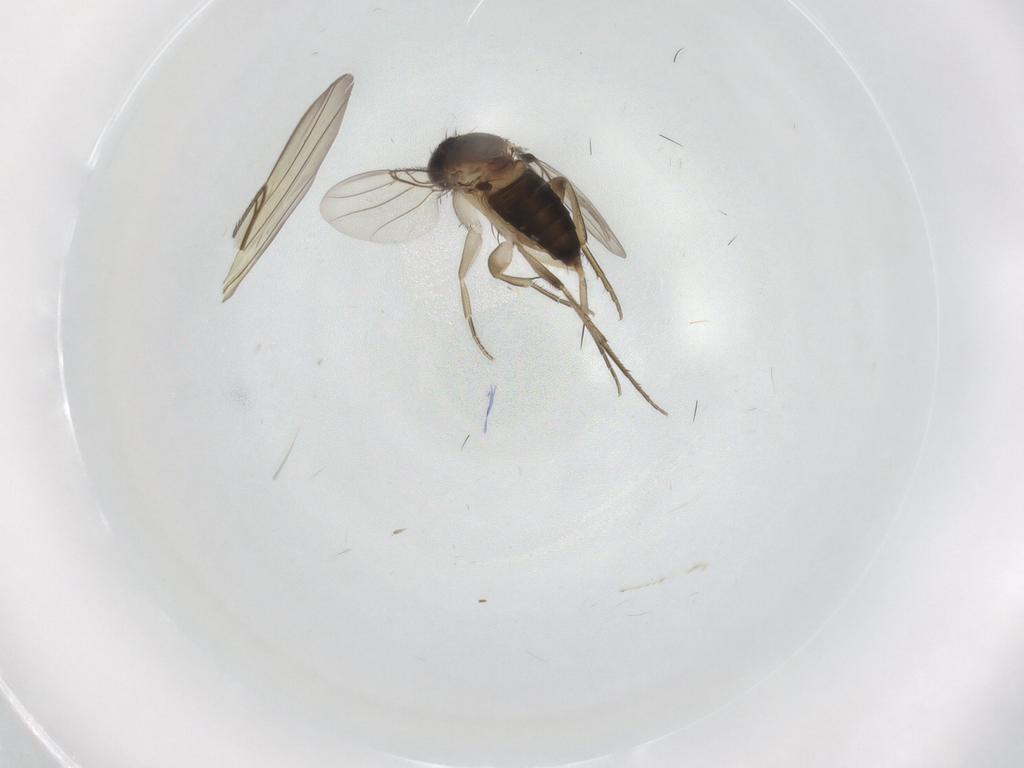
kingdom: Animalia
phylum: Arthropoda
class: Insecta
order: Diptera
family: Phoridae
